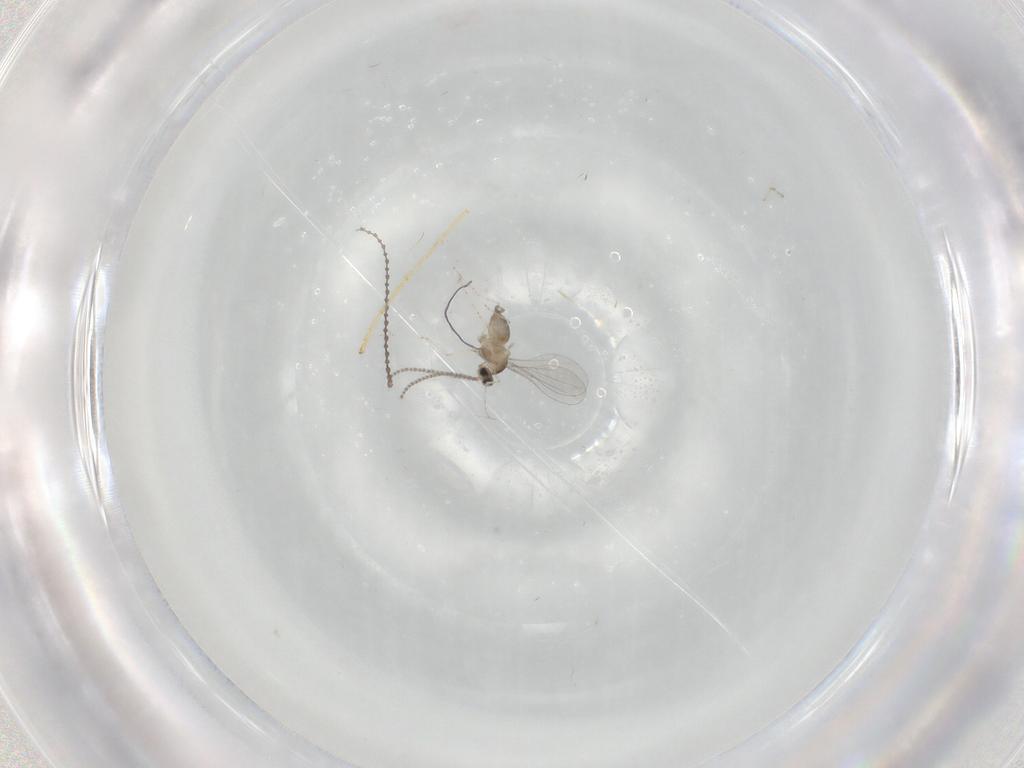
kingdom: Animalia
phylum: Arthropoda
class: Insecta
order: Diptera
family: Cecidomyiidae
